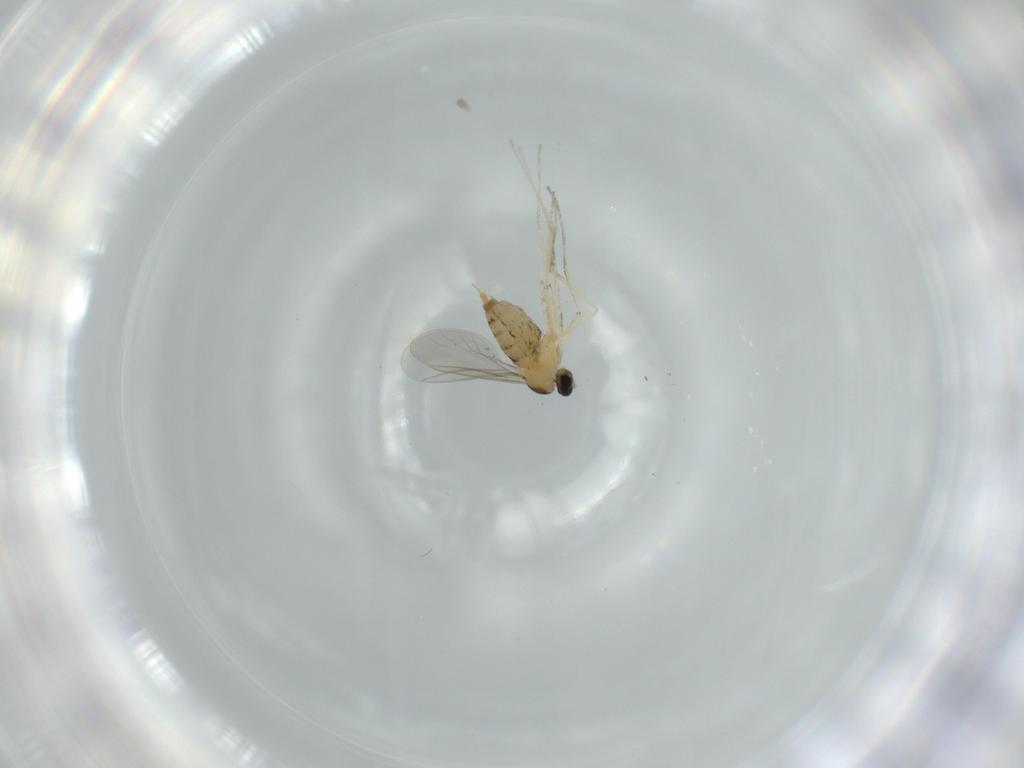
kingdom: Animalia
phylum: Arthropoda
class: Insecta
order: Diptera
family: Cecidomyiidae
